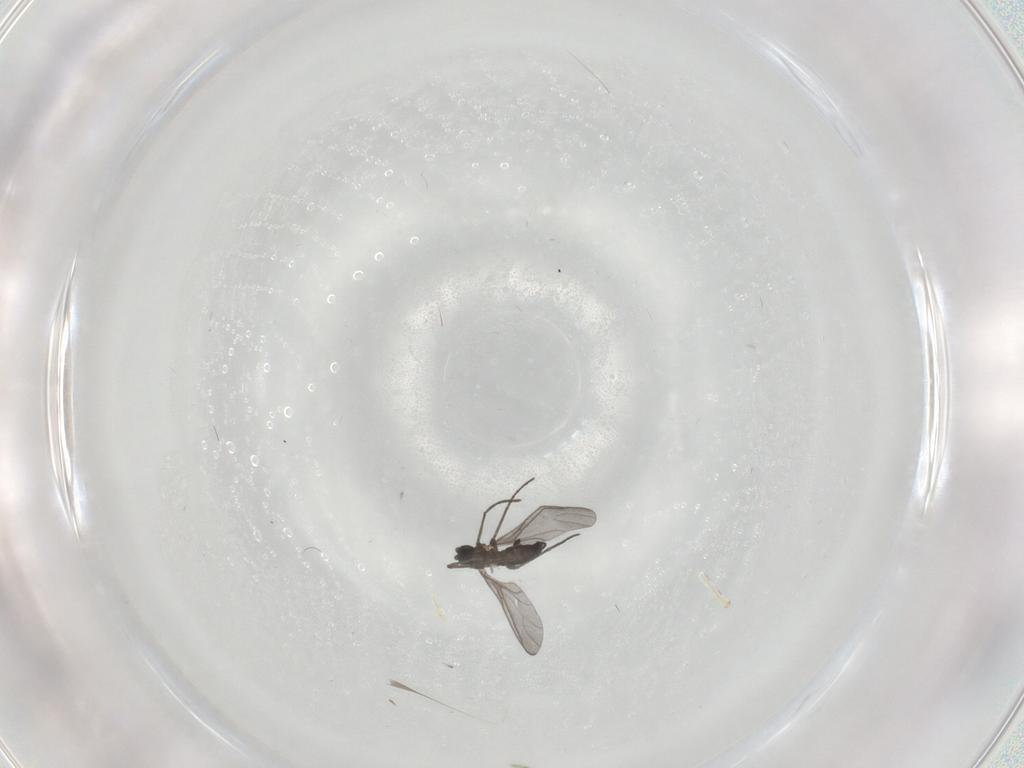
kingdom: Animalia
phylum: Arthropoda
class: Insecta
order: Diptera
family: Sciaridae
